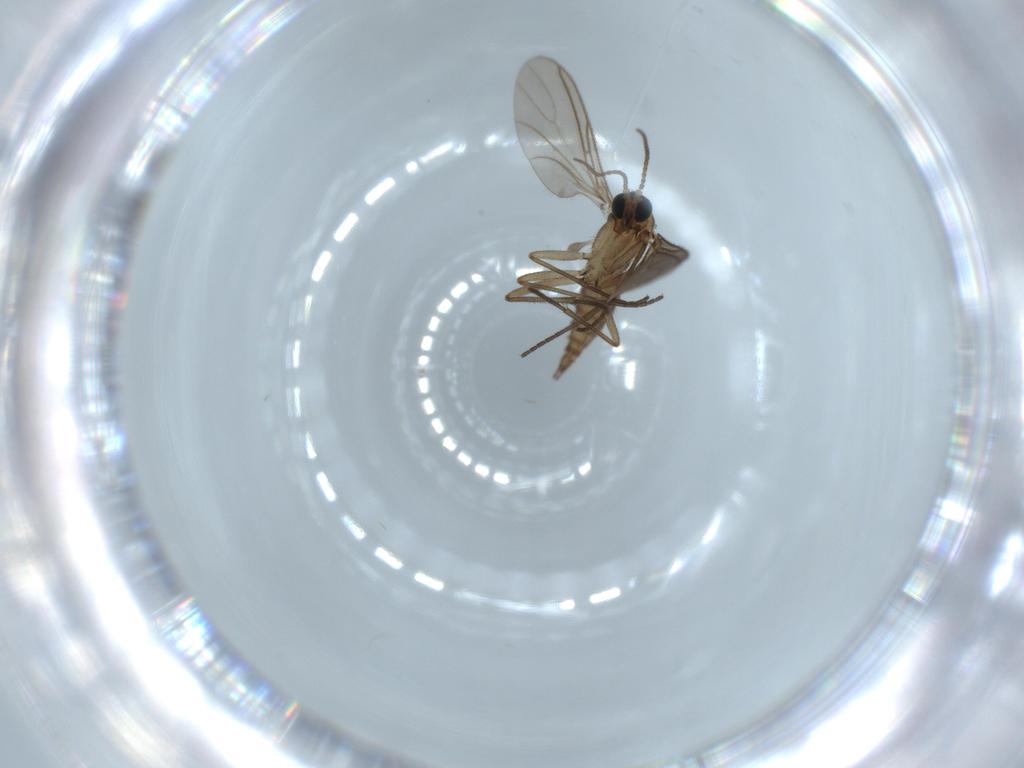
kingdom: Animalia
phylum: Arthropoda
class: Insecta
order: Diptera
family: Sciaridae
